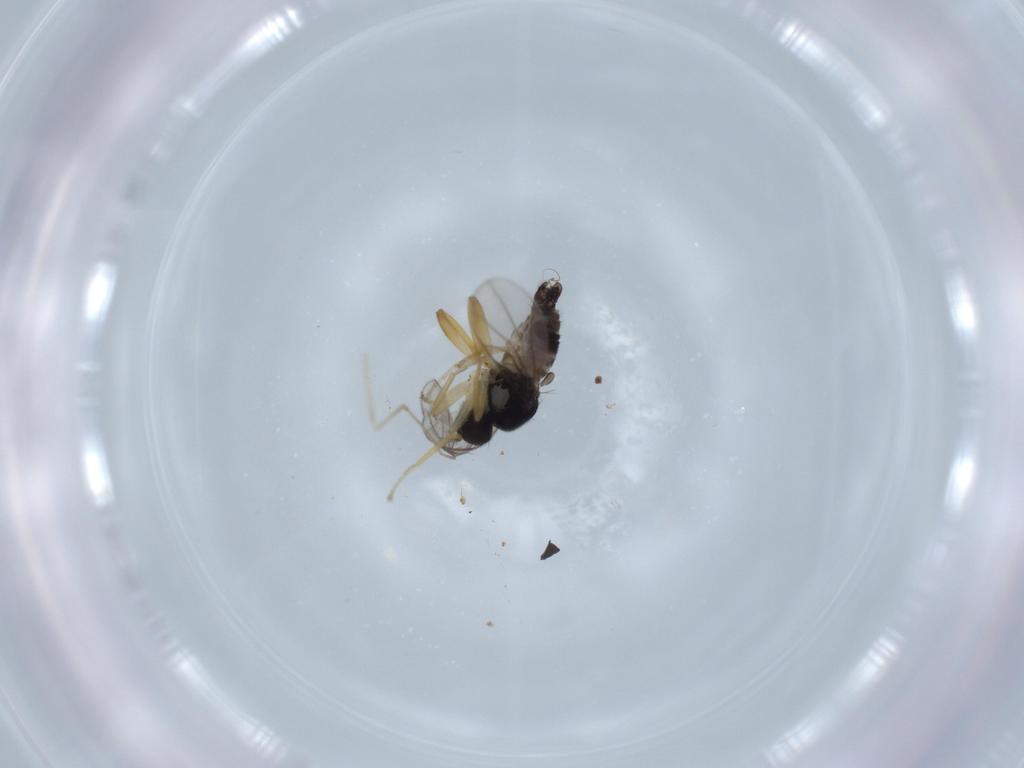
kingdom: Animalia
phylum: Arthropoda
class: Insecta
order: Diptera
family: Hybotidae
